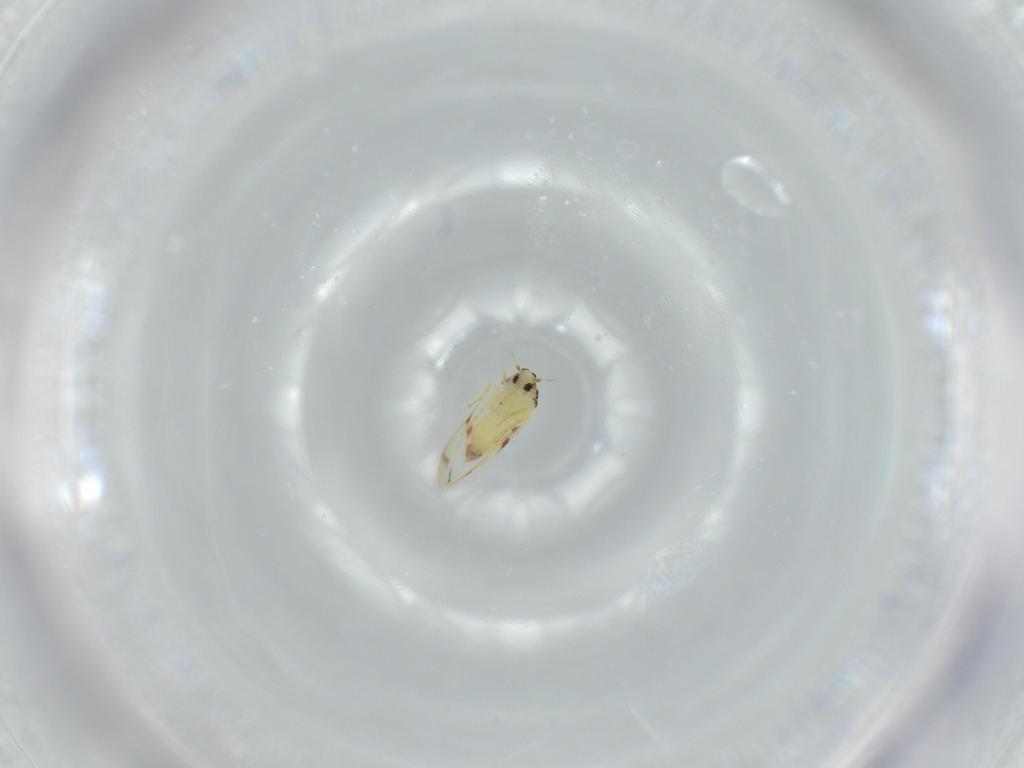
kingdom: Animalia
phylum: Arthropoda
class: Insecta
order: Hemiptera
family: Aleyrodidae
